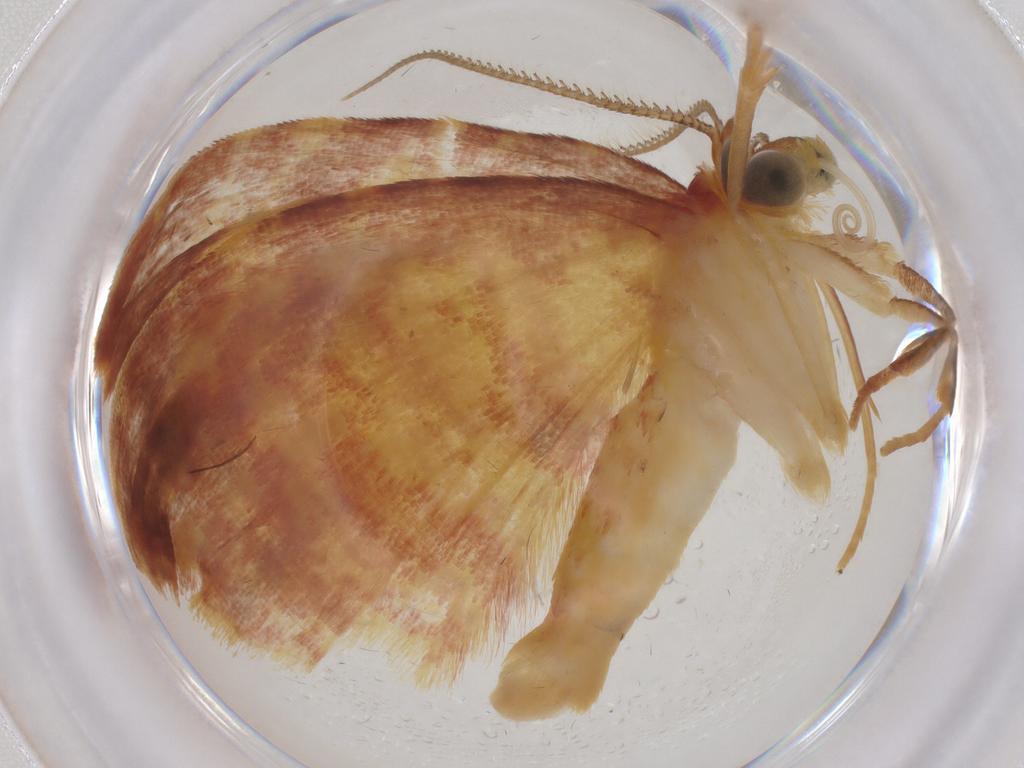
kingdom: Animalia
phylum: Arthropoda
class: Insecta
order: Lepidoptera
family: Geometridae
